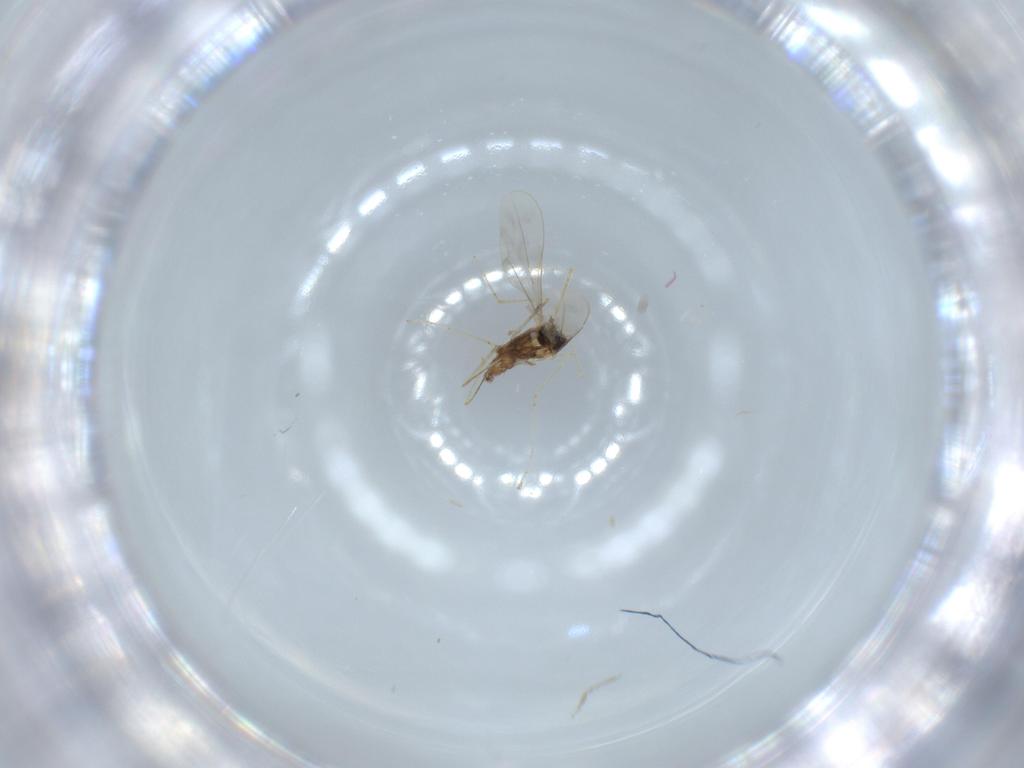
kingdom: Animalia
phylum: Arthropoda
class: Insecta
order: Diptera
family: Cecidomyiidae
